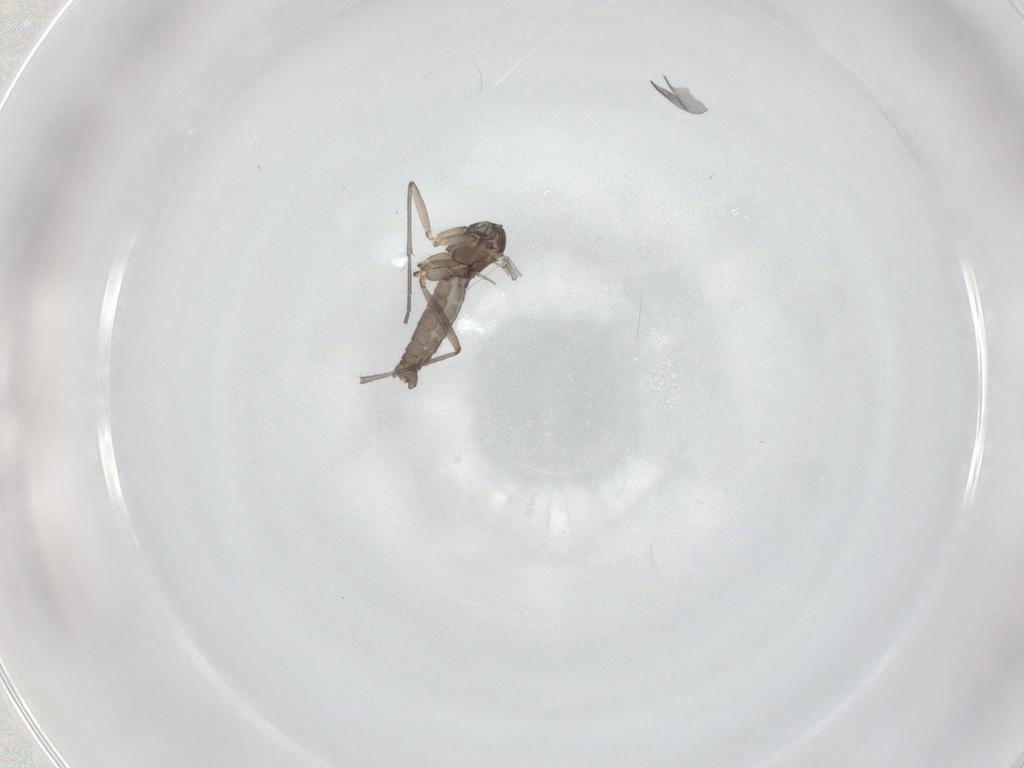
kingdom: Animalia
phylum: Arthropoda
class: Insecta
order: Diptera
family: Sciaridae
